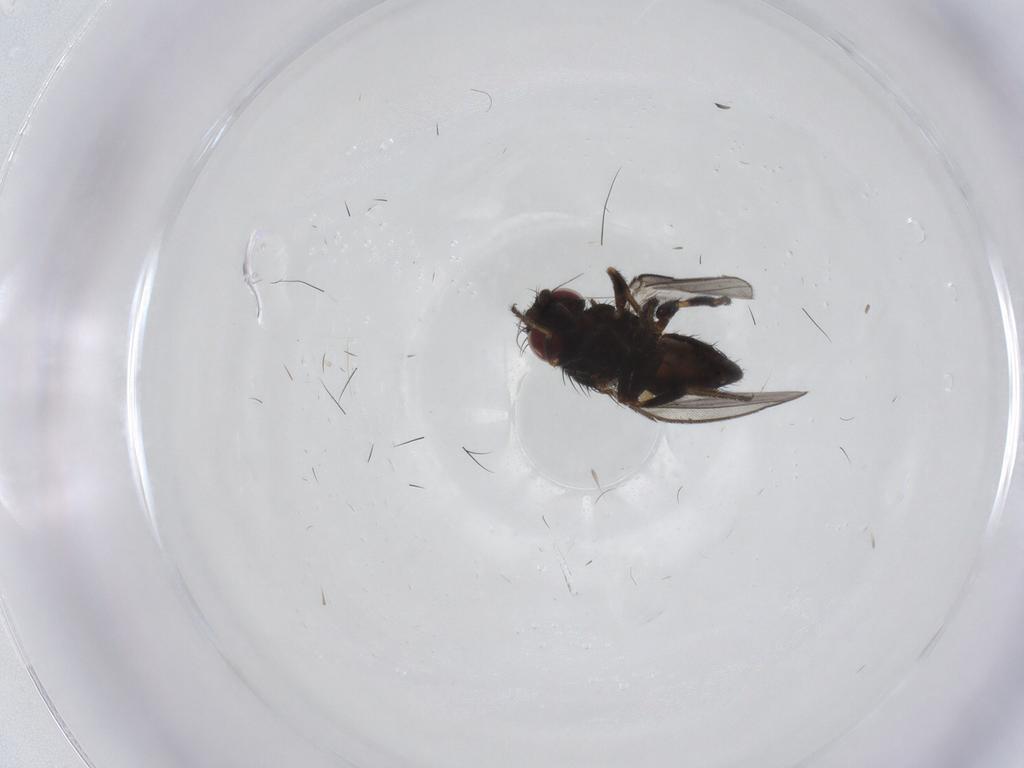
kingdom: Animalia
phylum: Arthropoda
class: Insecta
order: Diptera
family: Milichiidae
